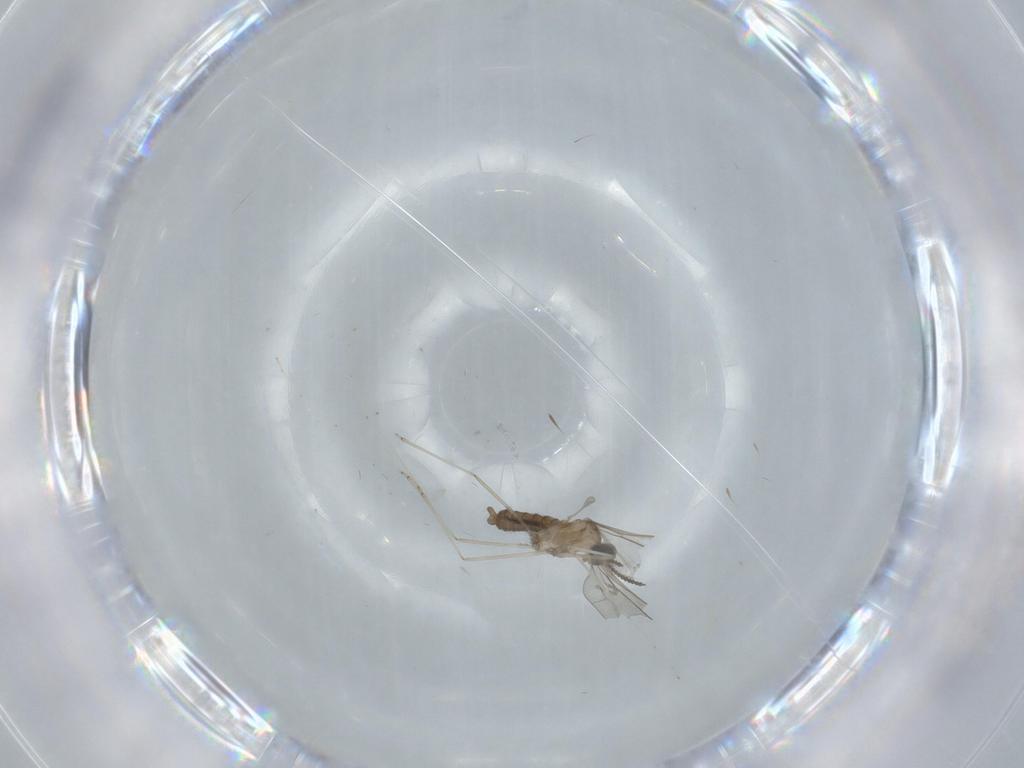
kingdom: Animalia
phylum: Arthropoda
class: Insecta
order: Diptera
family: Cecidomyiidae
